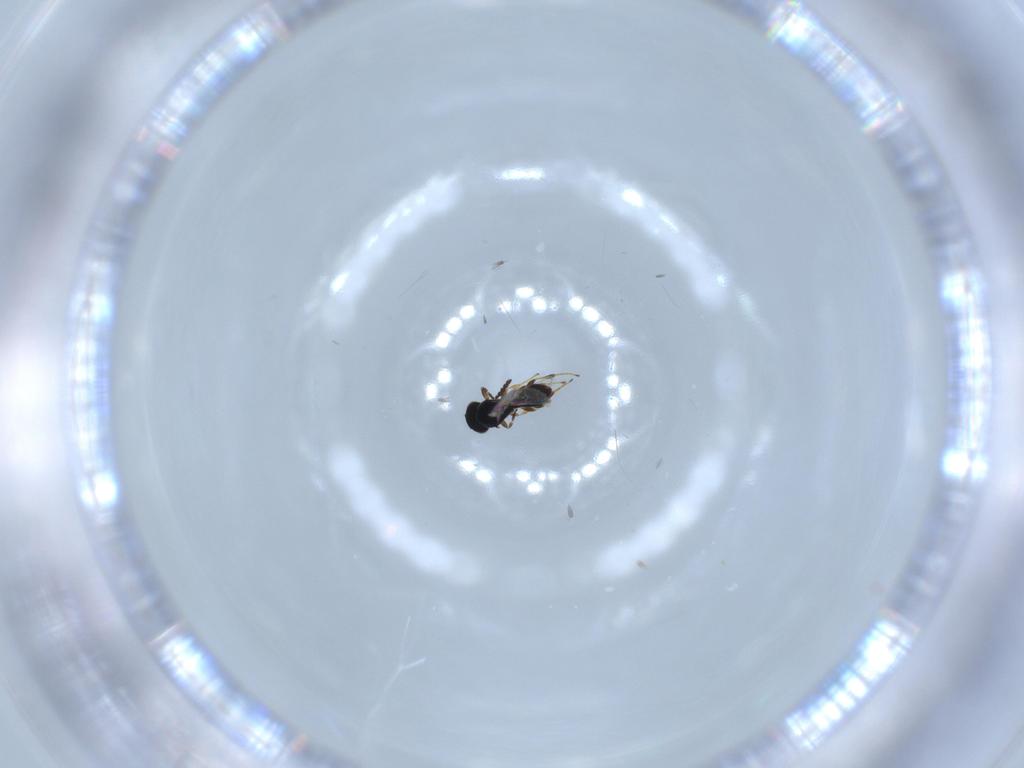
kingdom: Animalia
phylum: Arthropoda
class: Insecta
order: Hymenoptera
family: Platygastridae
